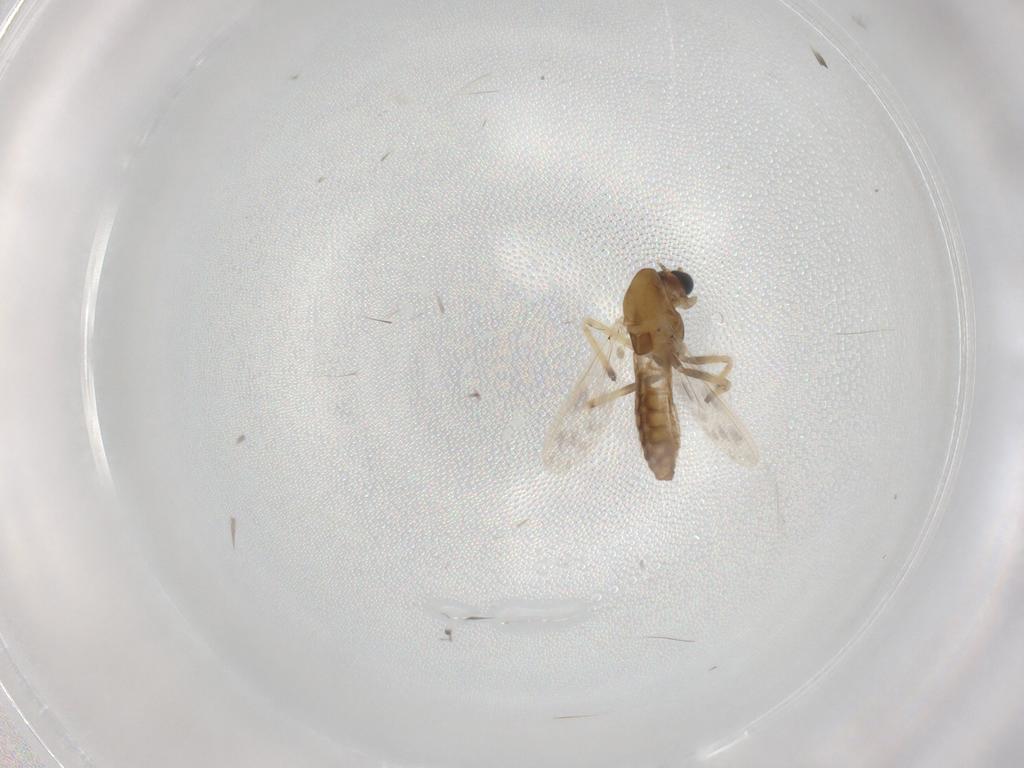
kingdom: Animalia
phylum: Arthropoda
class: Insecta
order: Diptera
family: Chironomidae
